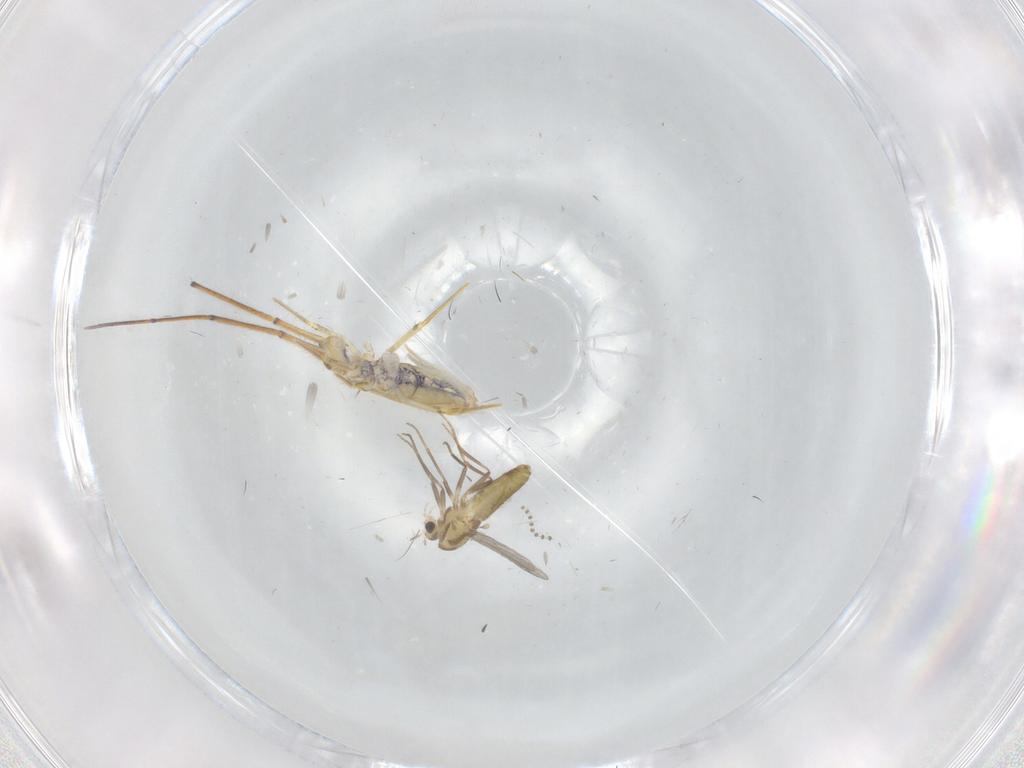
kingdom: Animalia
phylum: Arthropoda
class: Insecta
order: Diptera
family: Chironomidae
